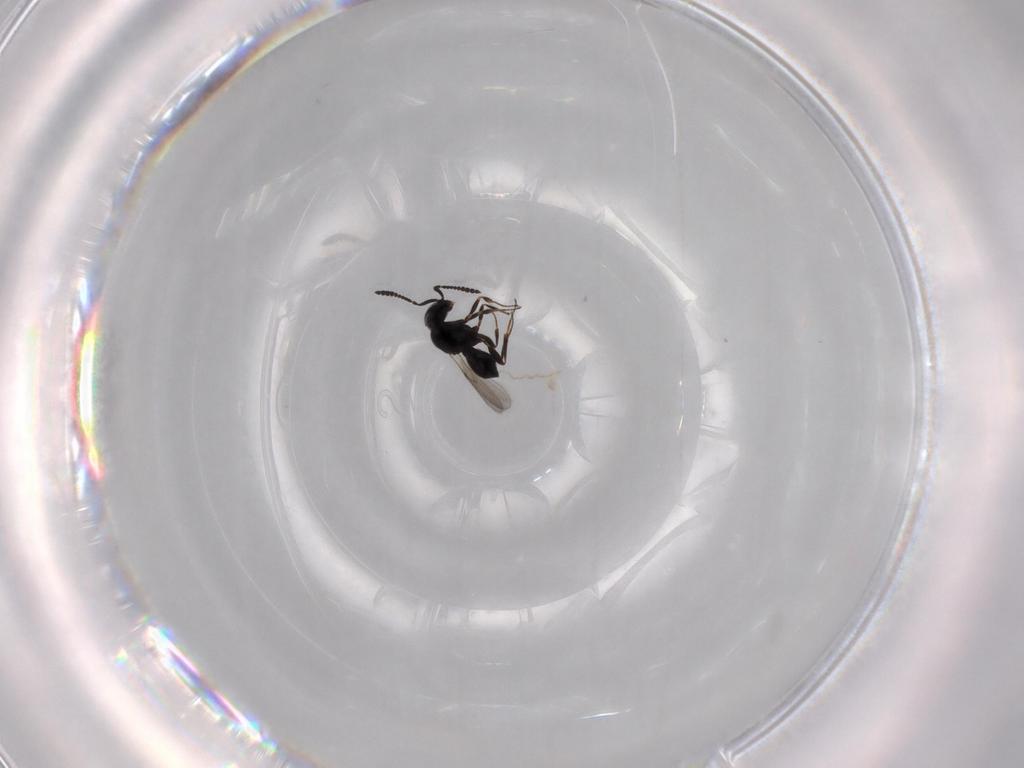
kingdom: Animalia
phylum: Arthropoda
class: Insecta
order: Hymenoptera
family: Scelionidae
